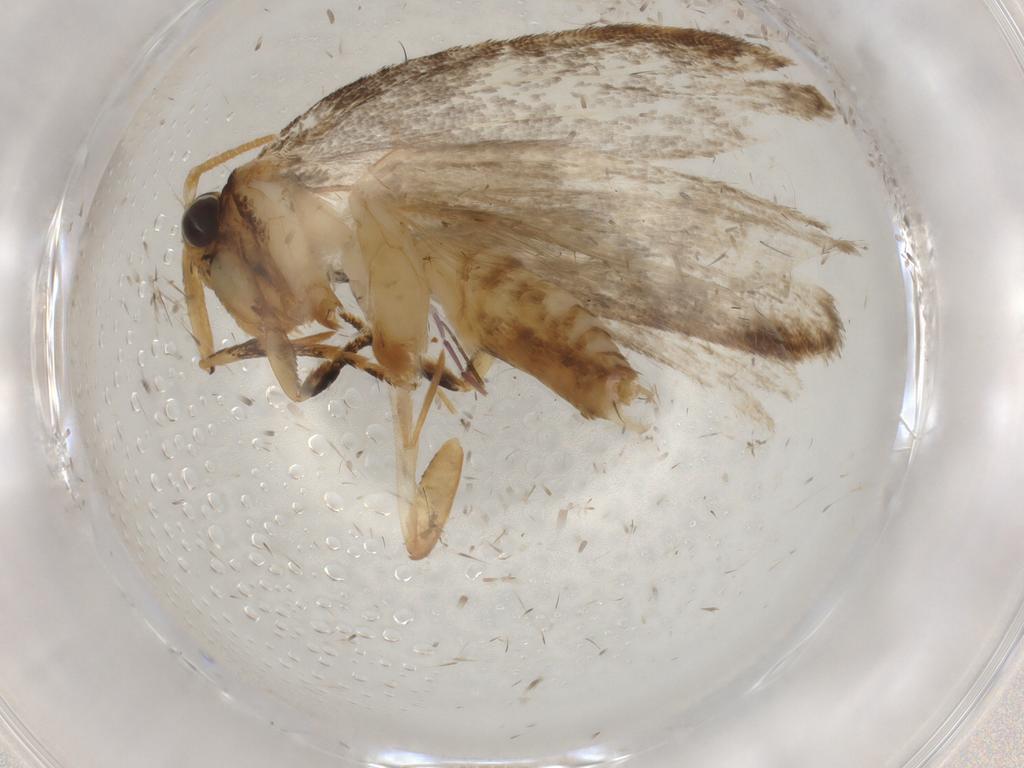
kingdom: Animalia
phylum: Arthropoda
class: Insecta
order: Lepidoptera
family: Oecophoridae
